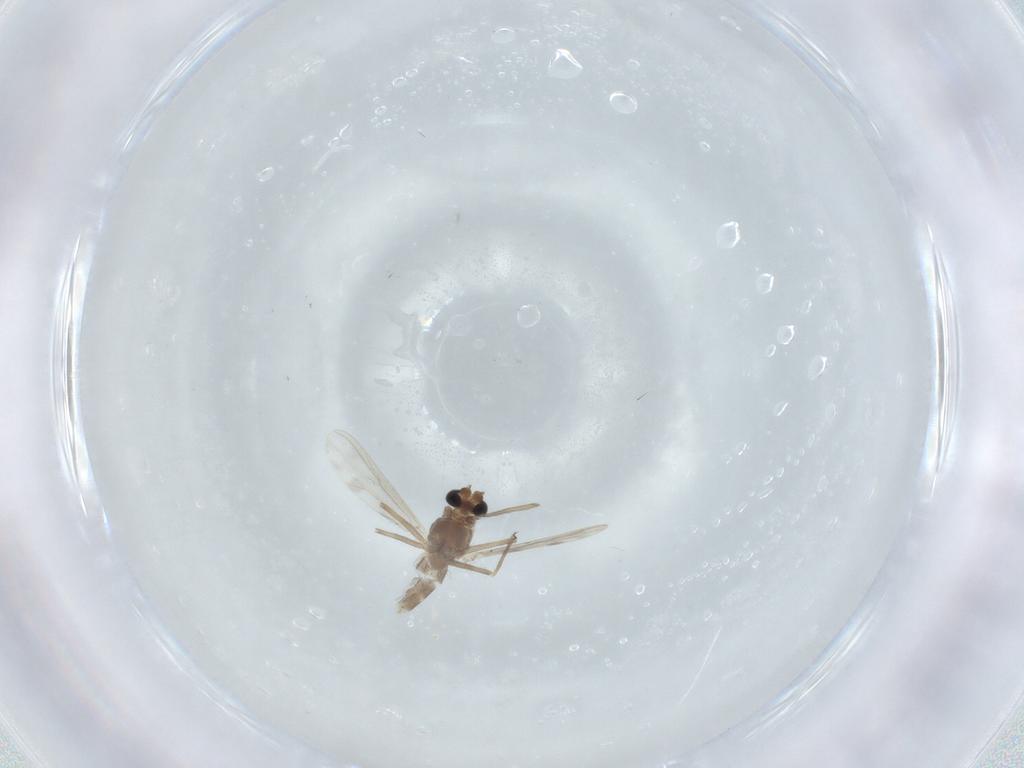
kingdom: Animalia
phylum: Arthropoda
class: Insecta
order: Diptera
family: Chironomidae
